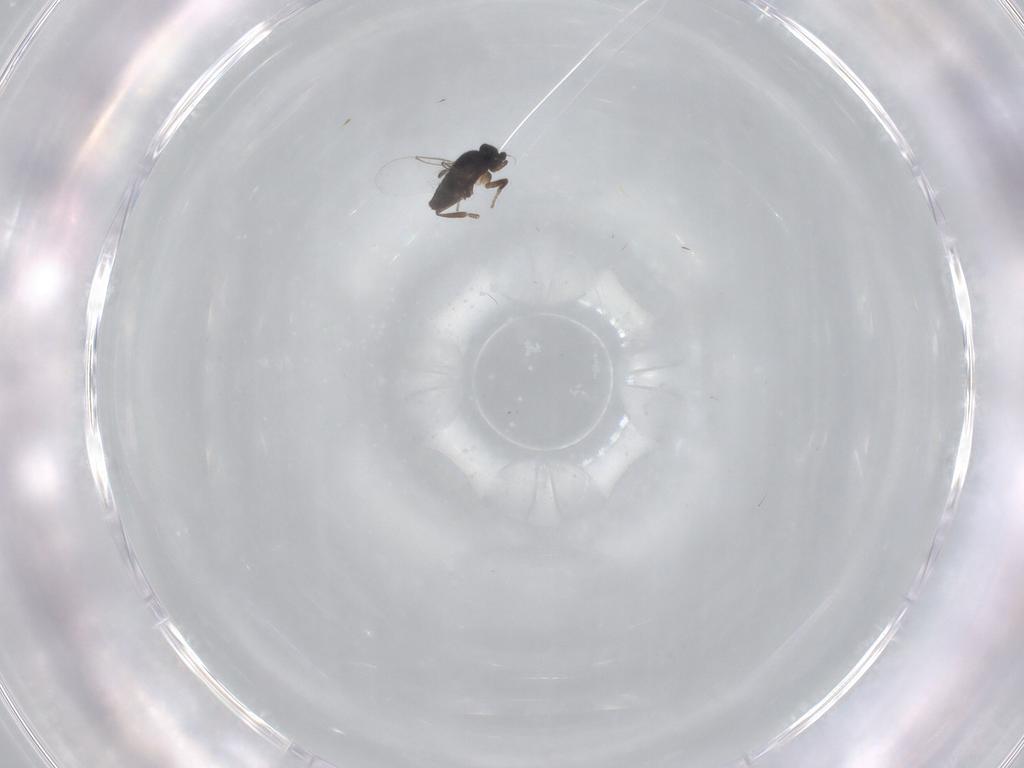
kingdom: Animalia
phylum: Arthropoda
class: Insecta
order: Diptera
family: Phoridae
